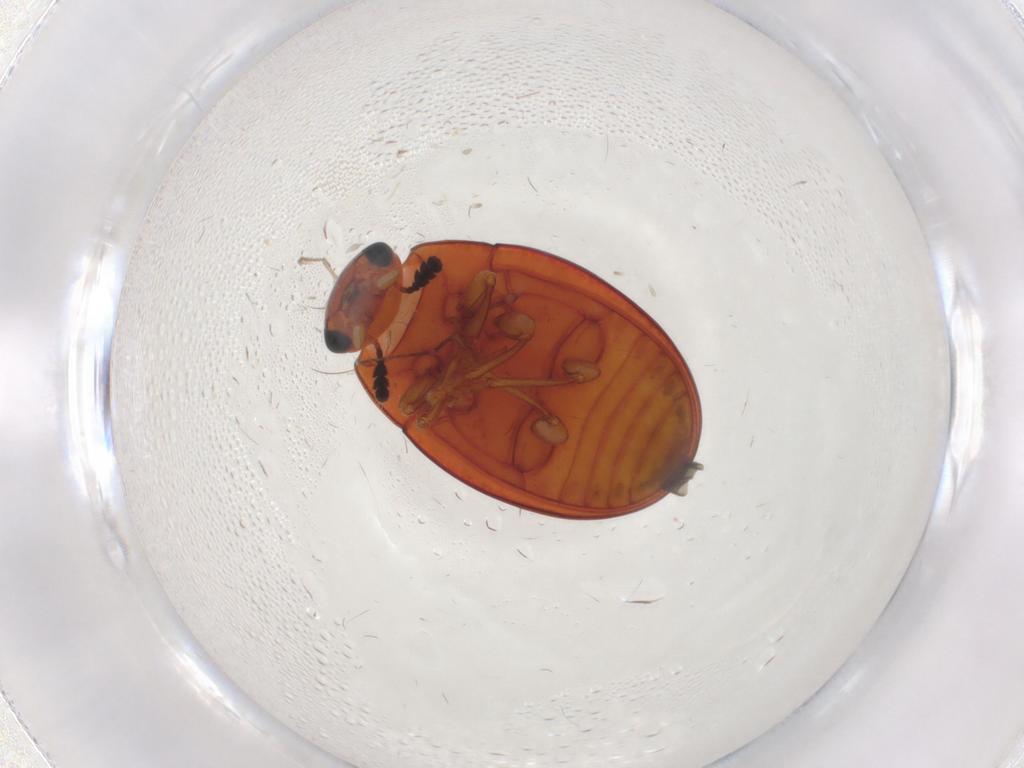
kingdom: Animalia
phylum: Arthropoda
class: Insecta
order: Coleoptera
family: Erotylidae
